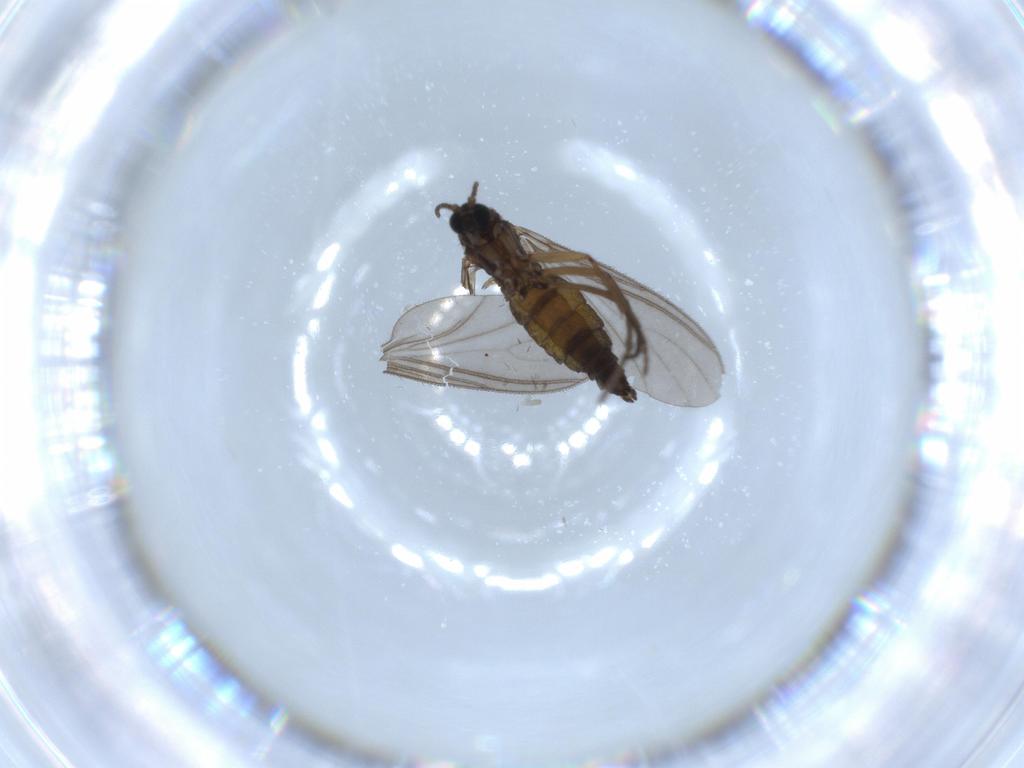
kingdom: Animalia
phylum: Arthropoda
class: Insecta
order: Diptera
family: Sciaridae
